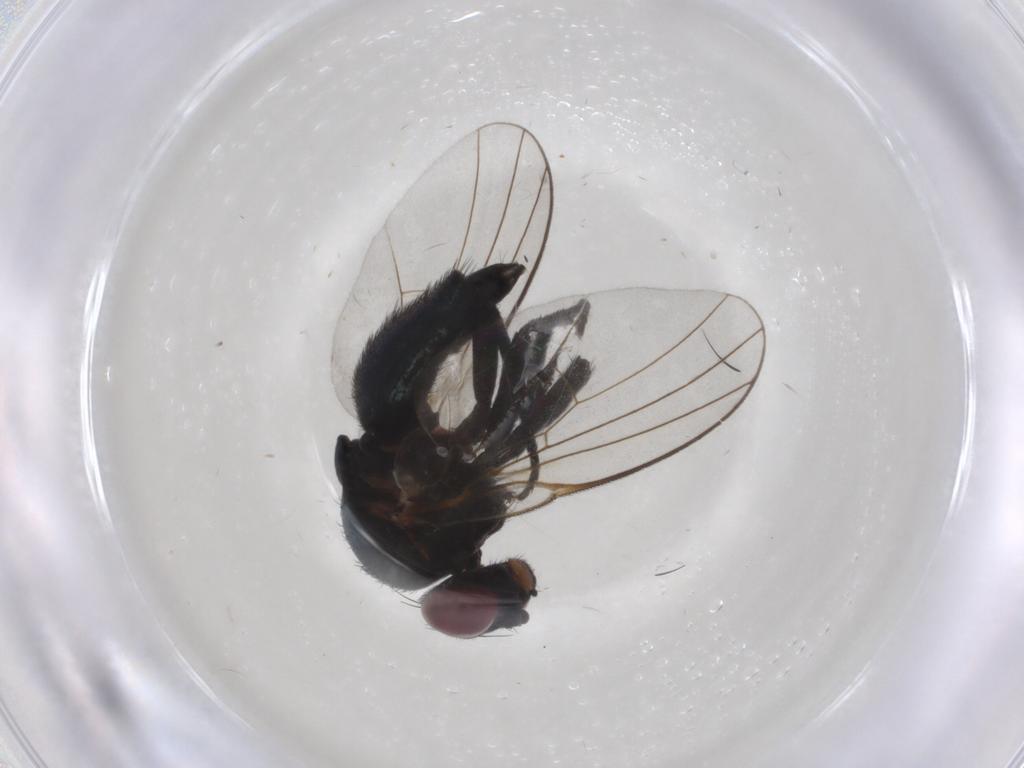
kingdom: Animalia
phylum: Arthropoda
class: Insecta
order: Diptera
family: Agromyzidae
